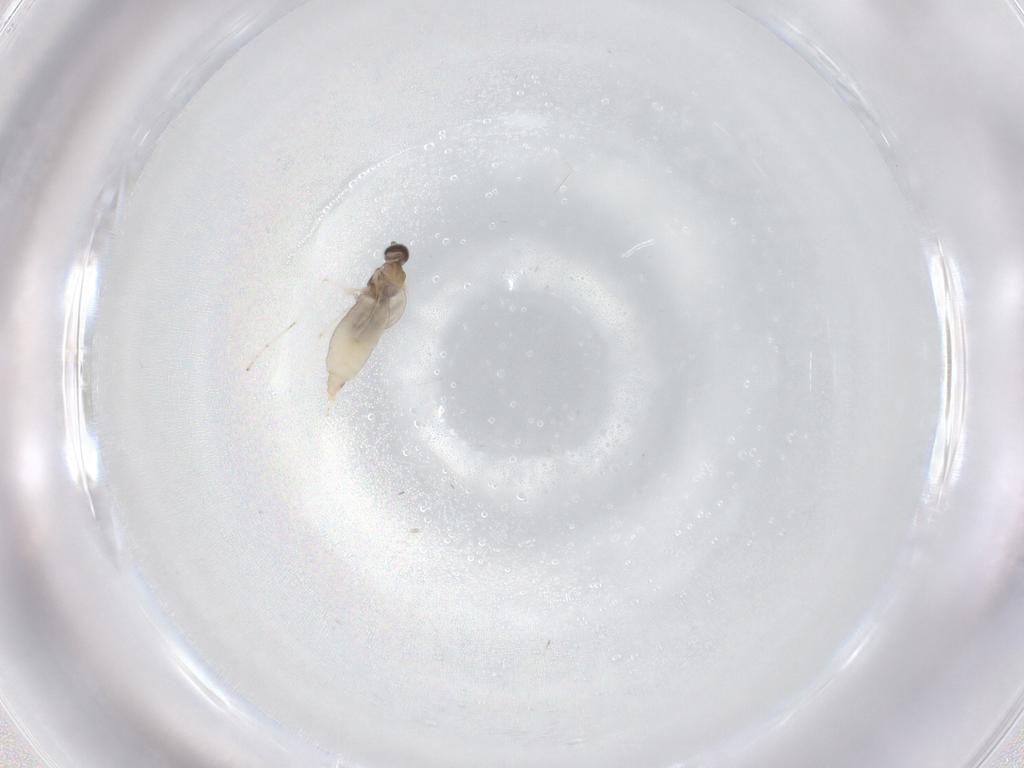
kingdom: Animalia
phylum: Arthropoda
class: Insecta
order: Diptera
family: Cecidomyiidae
